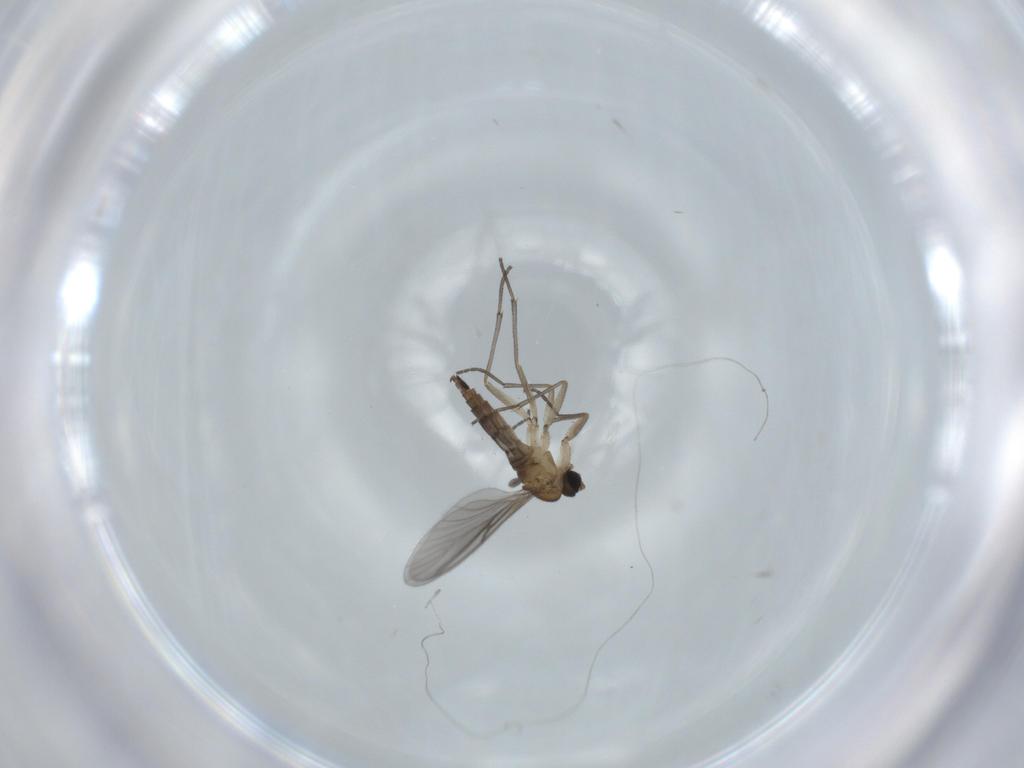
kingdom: Animalia
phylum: Arthropoda
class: Insecta
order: Diptera
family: Sciaridae
